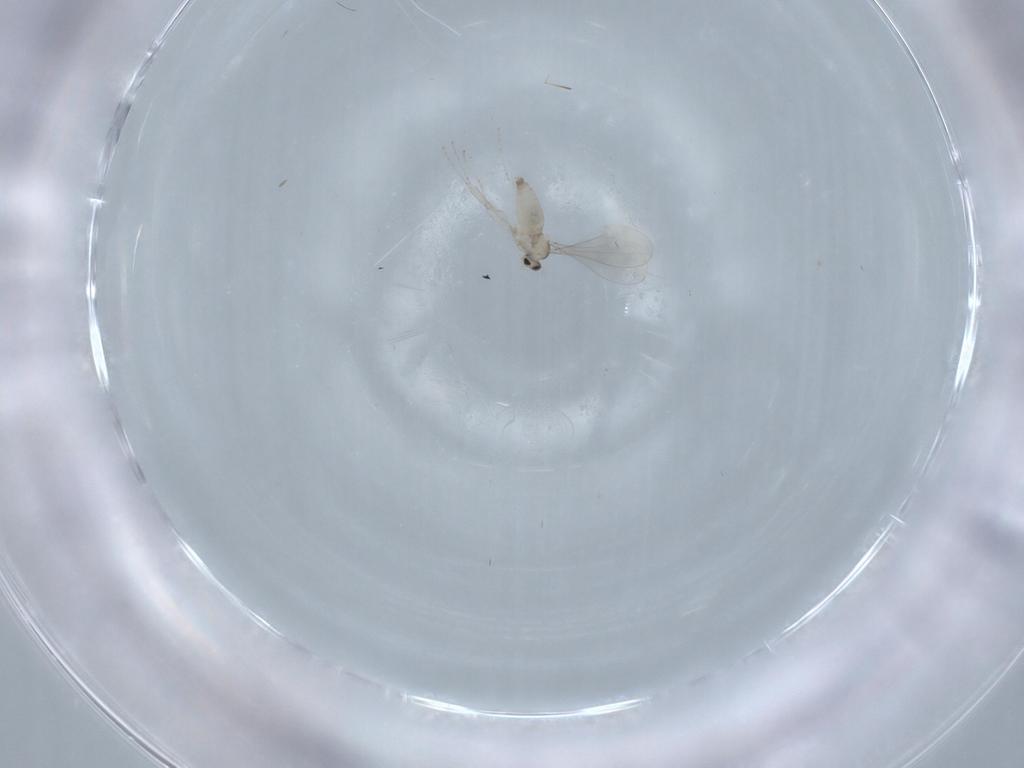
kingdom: Animalia
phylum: Arthropoda
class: Insecta
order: Diptera
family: Cecidomyiidae
